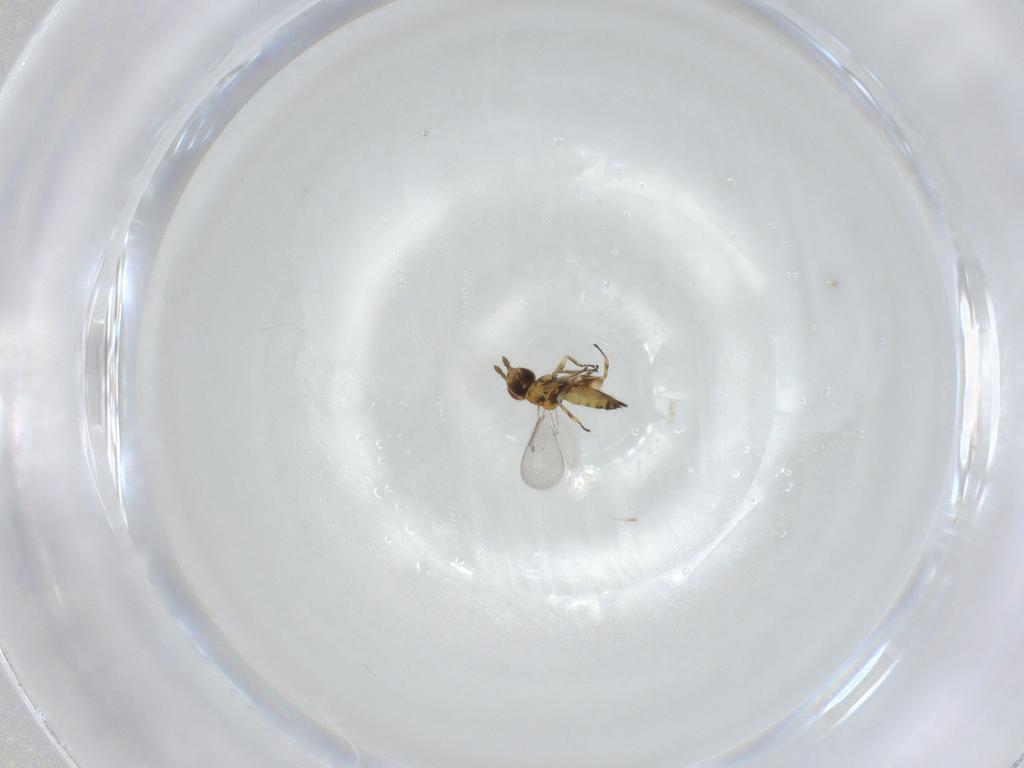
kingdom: Animalia
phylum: Arthropoda
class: Insecta
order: Hymenoptera
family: Eulophidae
